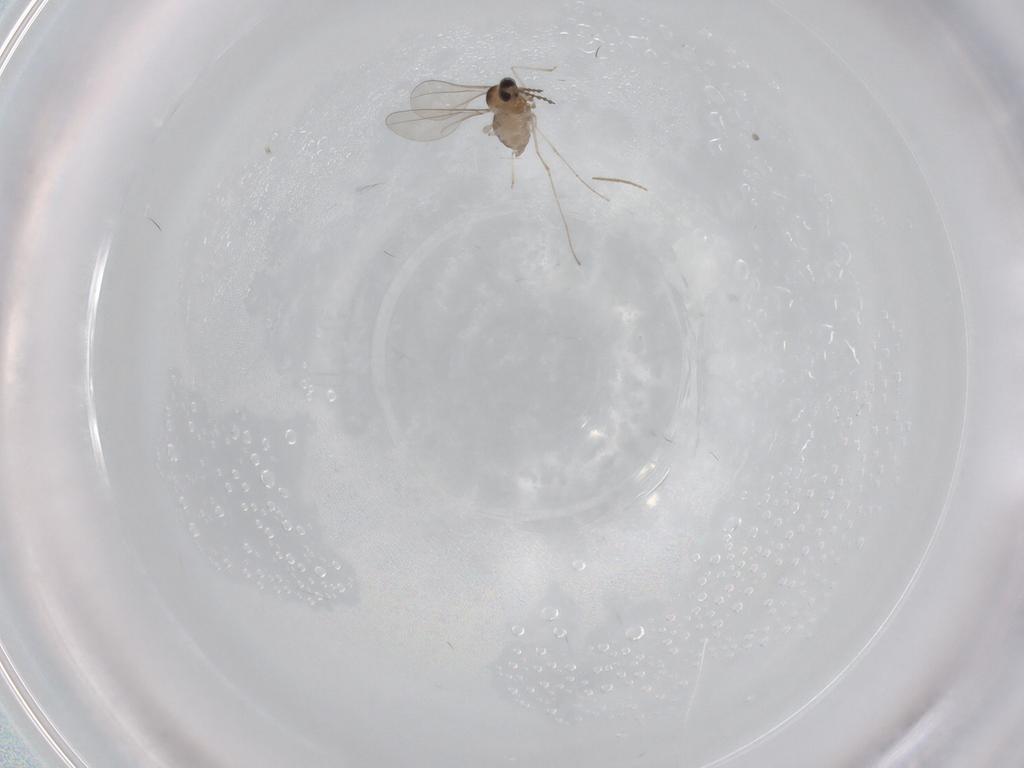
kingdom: Animalia
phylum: Arthropoda
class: Insecta
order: Diptera
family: Cecidomyiidae
